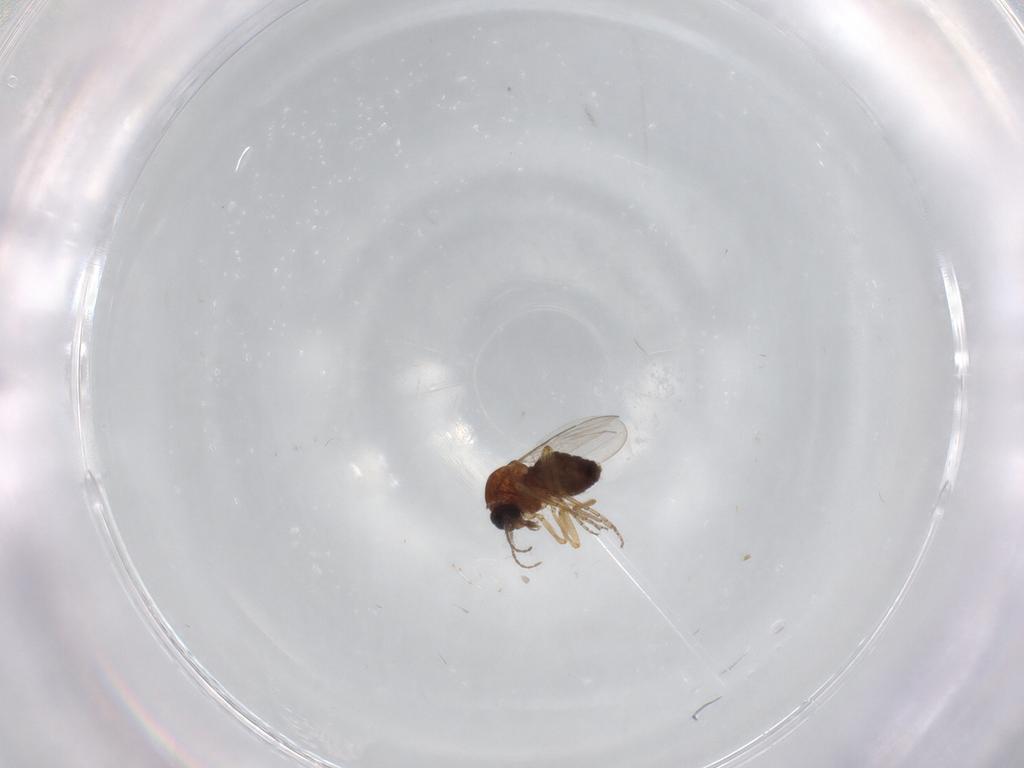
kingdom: Animalia
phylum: Arthropoda
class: Insecta
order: Diptera
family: Ceratopogonidae
